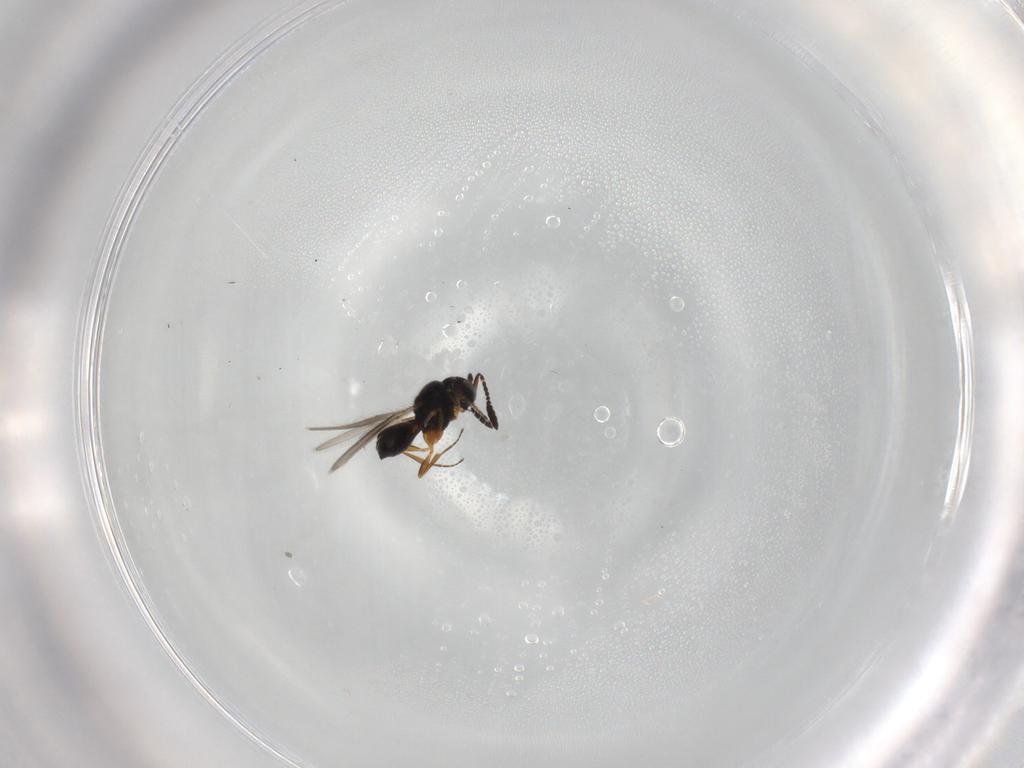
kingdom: Animalia
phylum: Arthropoda
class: Insecta
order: Hymenoptera
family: Scelionidae
